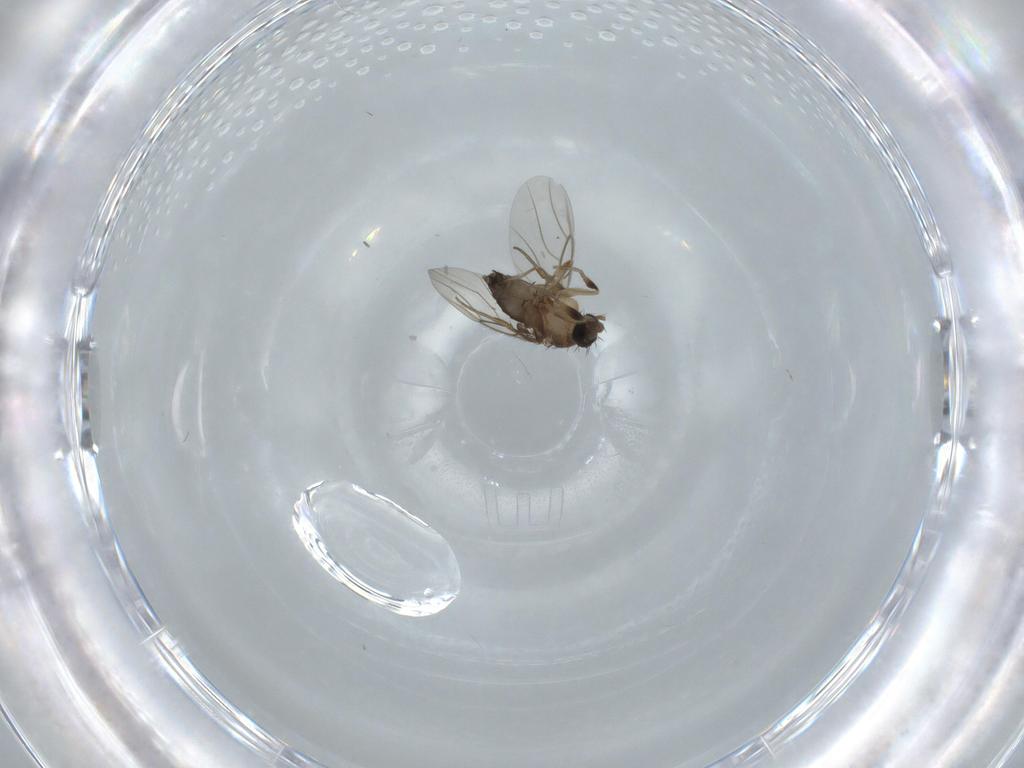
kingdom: Animalia
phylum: Arthropoda
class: Insecta
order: Diptera
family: Phoridae
